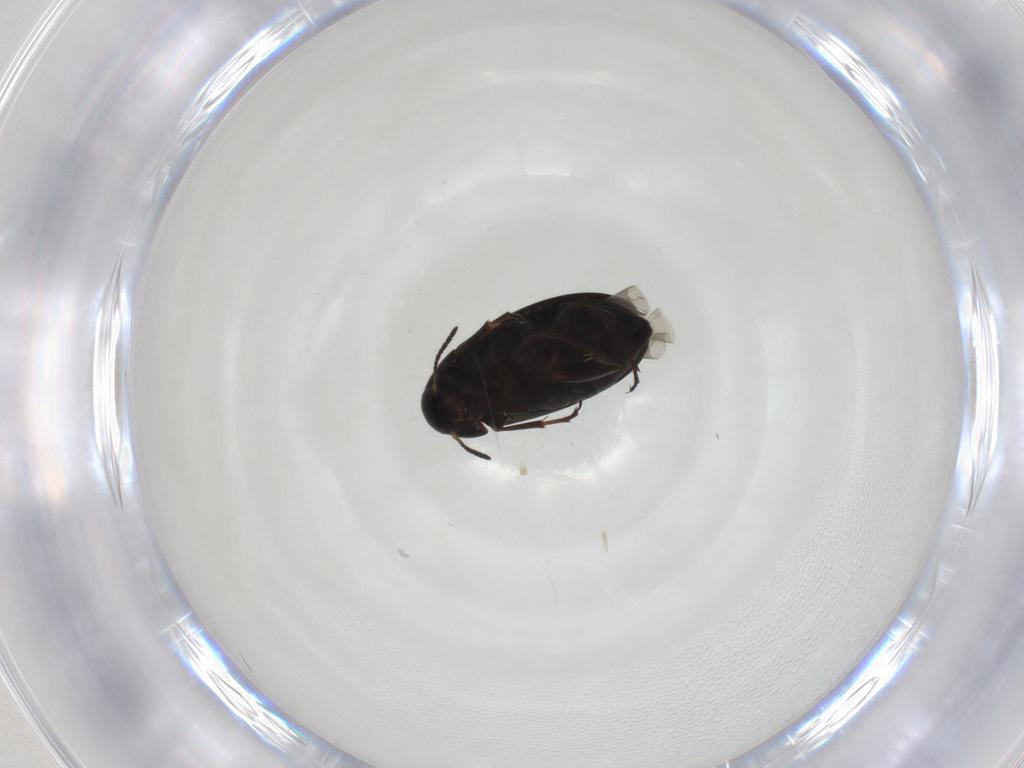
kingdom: Animalia
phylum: Arthropoda
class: Insecta
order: Coleoptera
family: Scraptiidae
